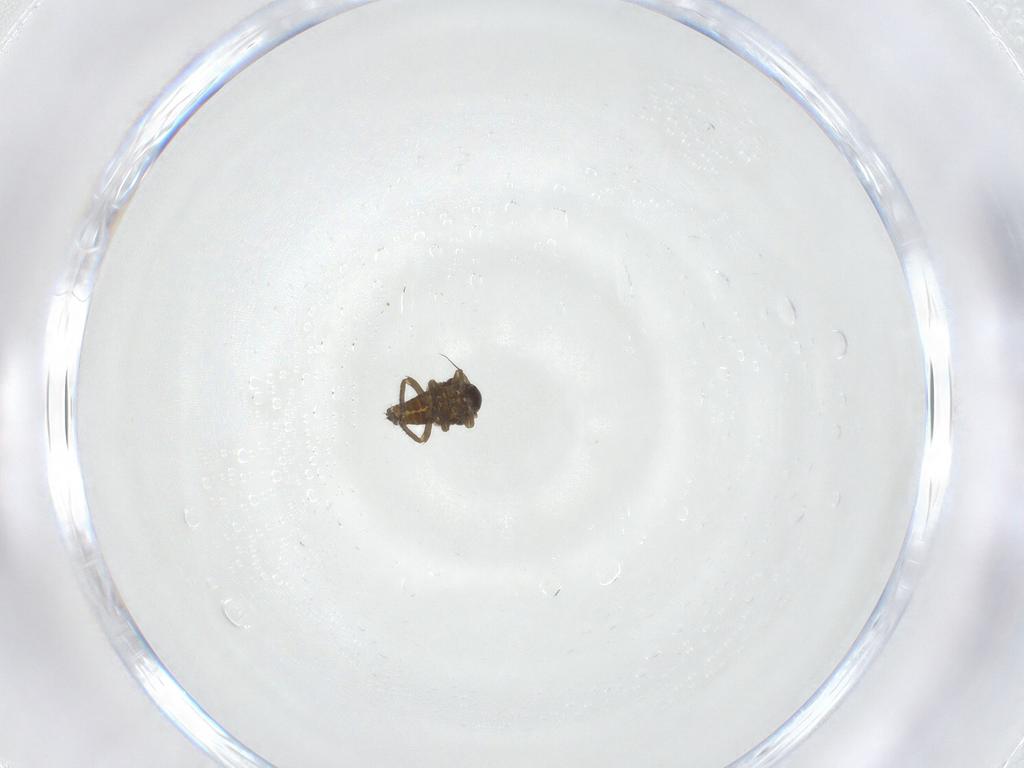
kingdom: Animalia
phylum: Arthropoda
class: Insecta
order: Hemiptera
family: Cicadellidae
